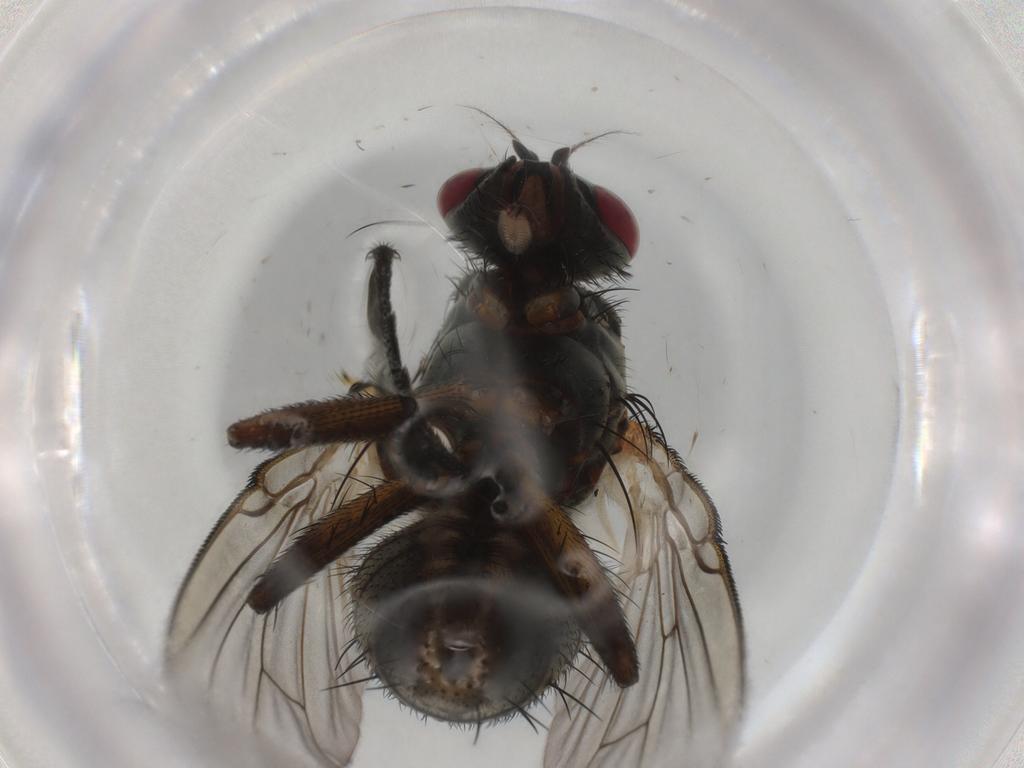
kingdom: Animalia
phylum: Arthropoda
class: Insecta
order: Diptera
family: Muscidae
